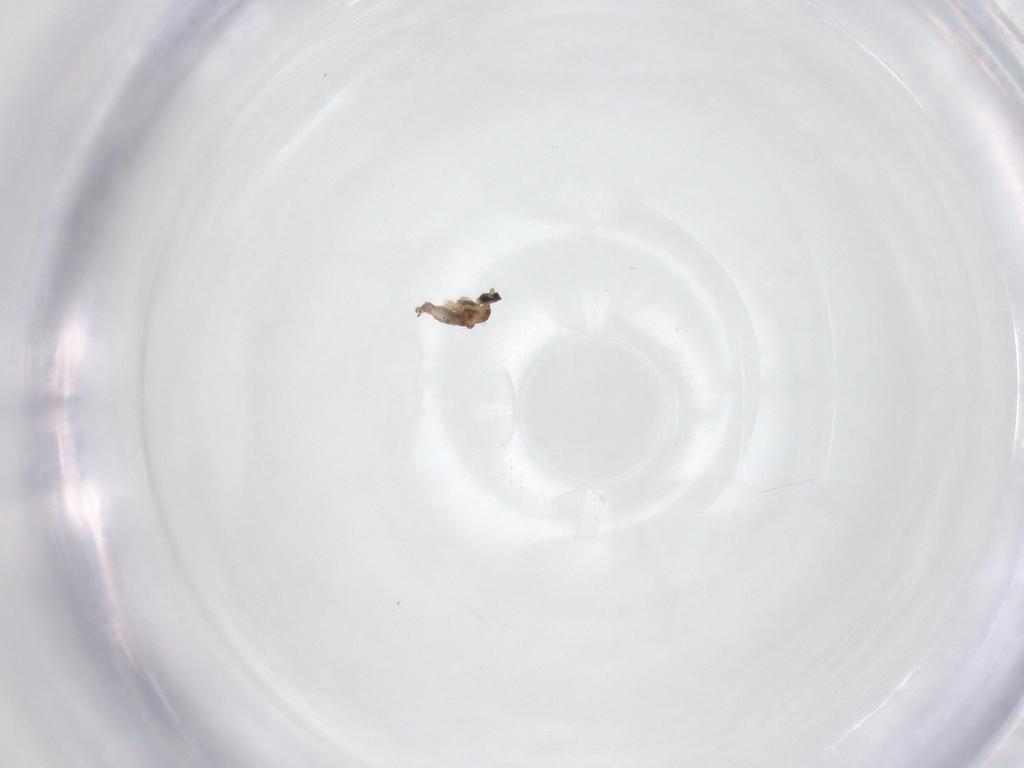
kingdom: Animalia
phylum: Arthropoda
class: Insecta
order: Diptera
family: Cecidomyiidae
